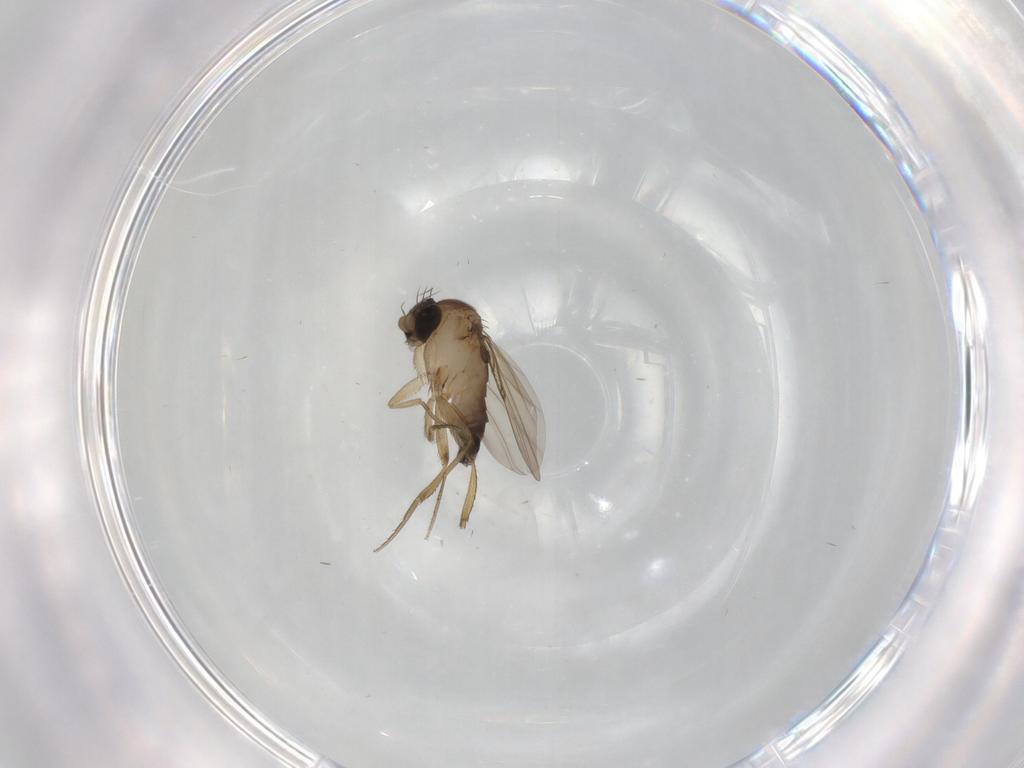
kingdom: Animalia
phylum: Arthropoda
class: Insecta
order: Diptera
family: Phoridae
